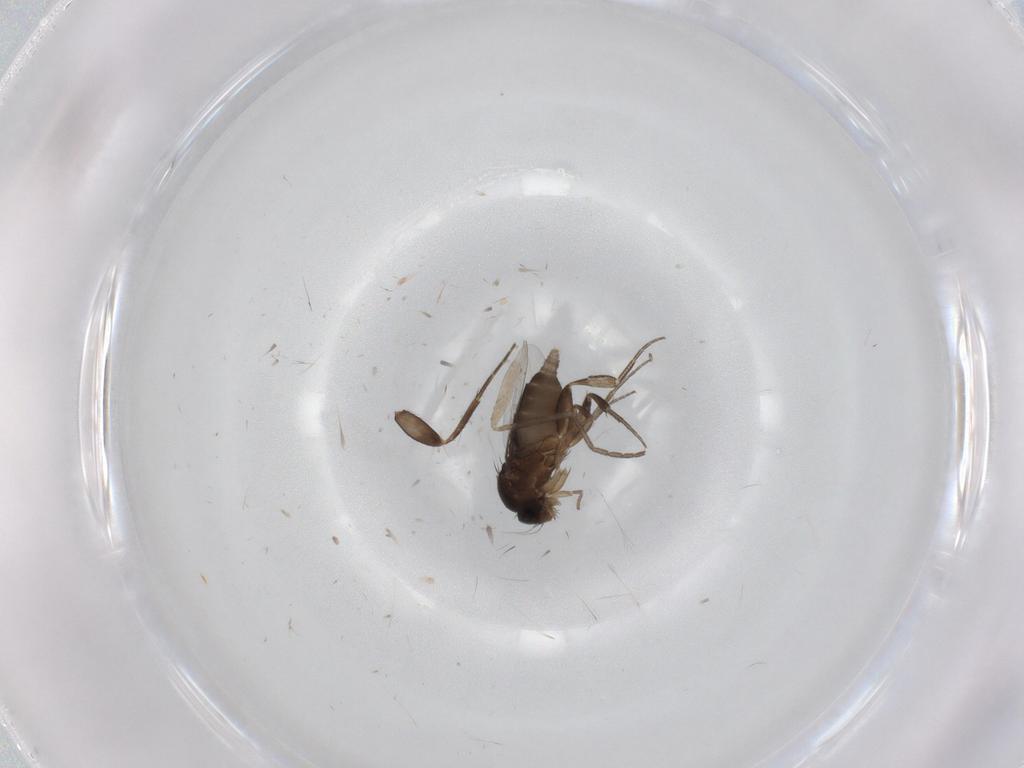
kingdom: Animalia
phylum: Arthropoda
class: Insecta
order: Diptera
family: Phoridae
